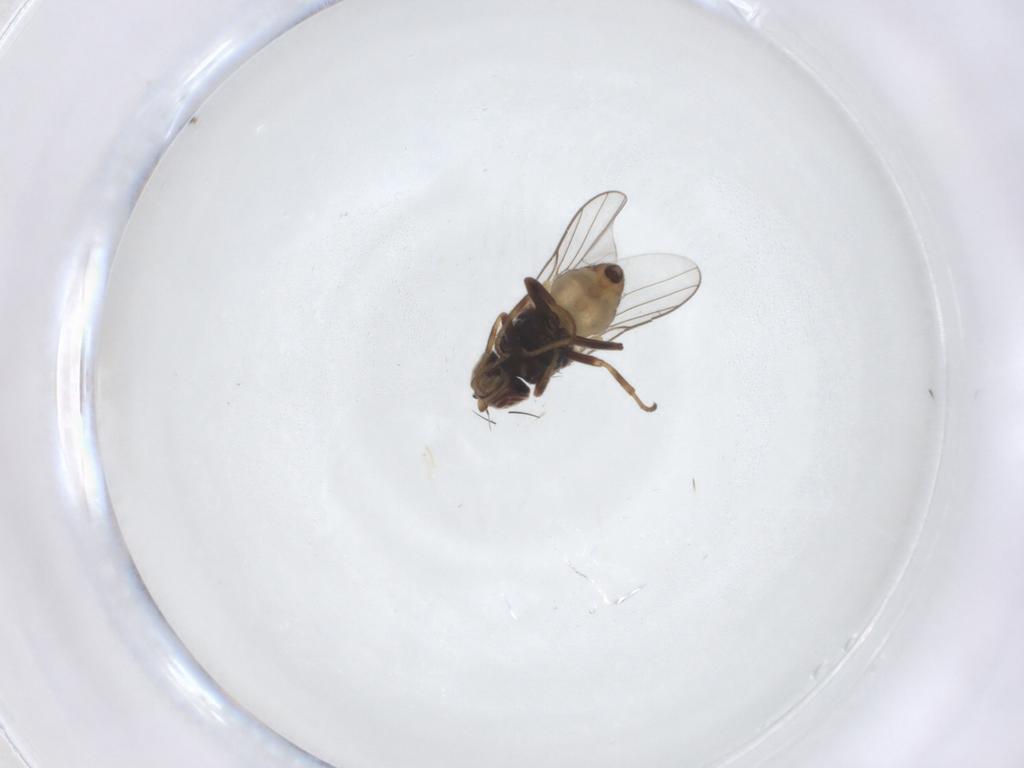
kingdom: Animalia
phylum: Arthropoda
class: Insecta
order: Diptera
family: Chloropidae
